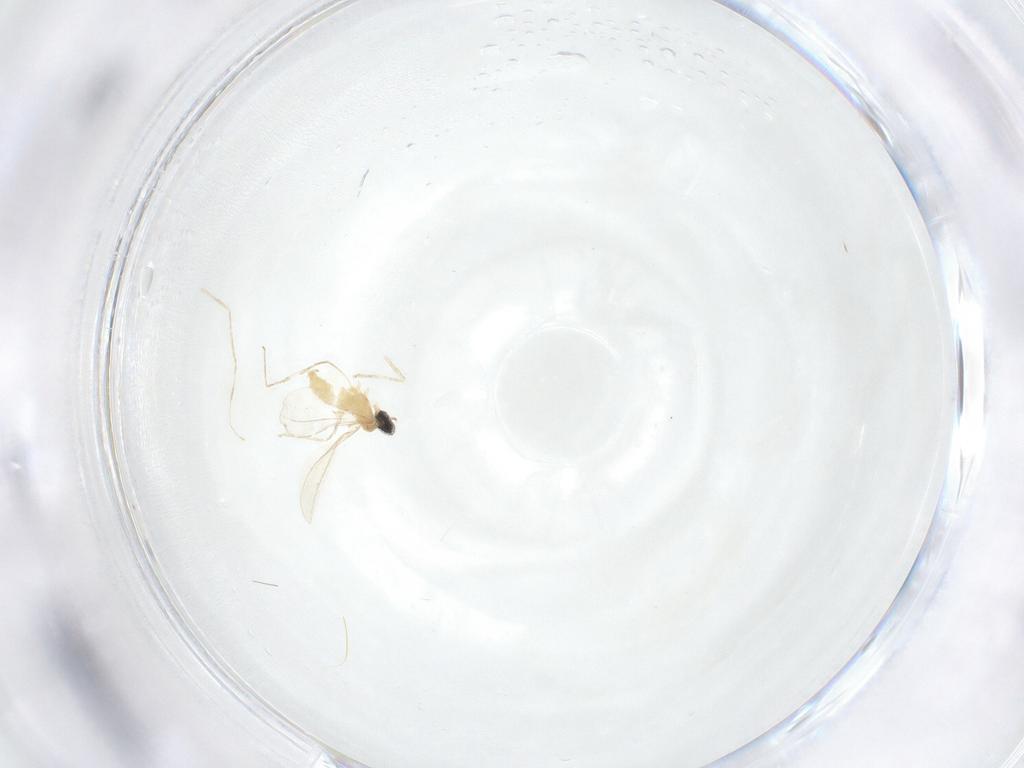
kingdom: Animalia
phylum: Arthropoda
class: Insecta
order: Diptera
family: Cecidomyiidae
